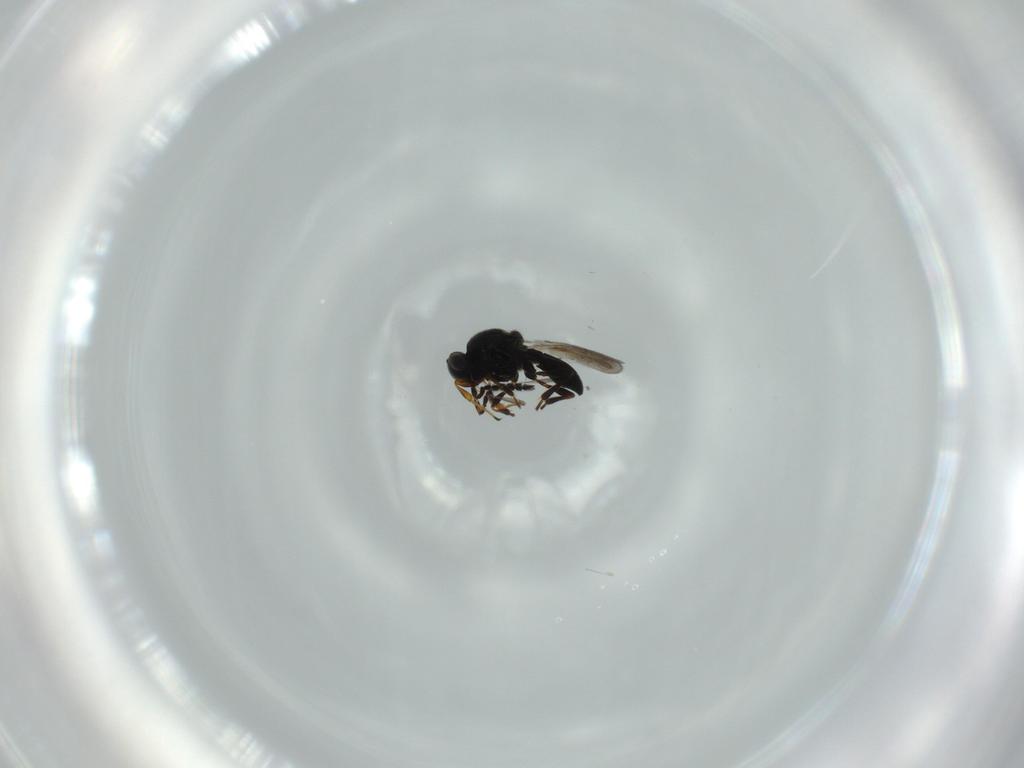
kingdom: Animalia
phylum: Arthropoda
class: Insecta
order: Hymenoptera
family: Platygastridae
